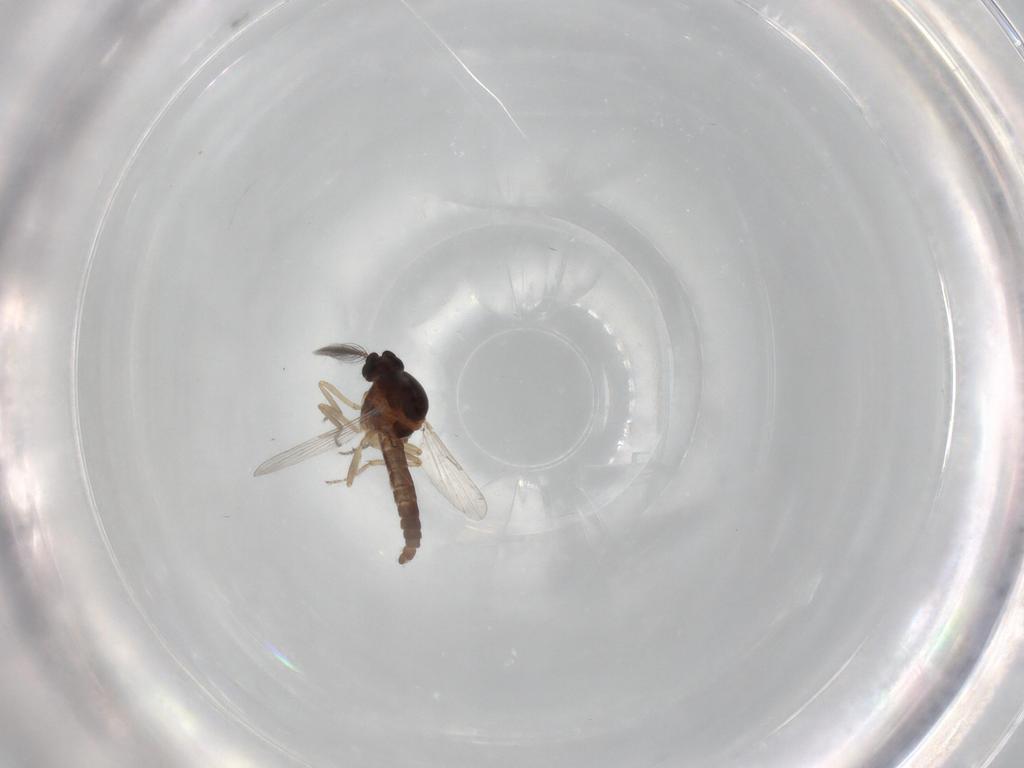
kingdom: Animalia
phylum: Arthropoda
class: Insecta
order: Diptera
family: Ceratopogonidae
